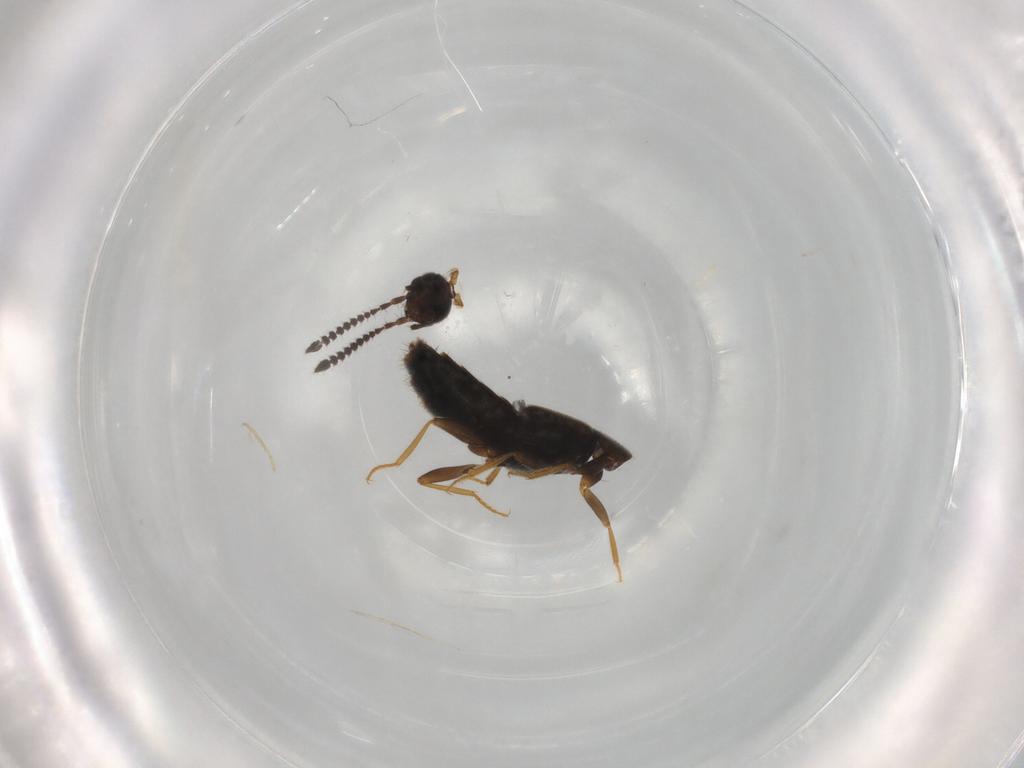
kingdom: Animalia
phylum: Arthropoda
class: Insecta
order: Coleoptera
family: Staphylinidae
